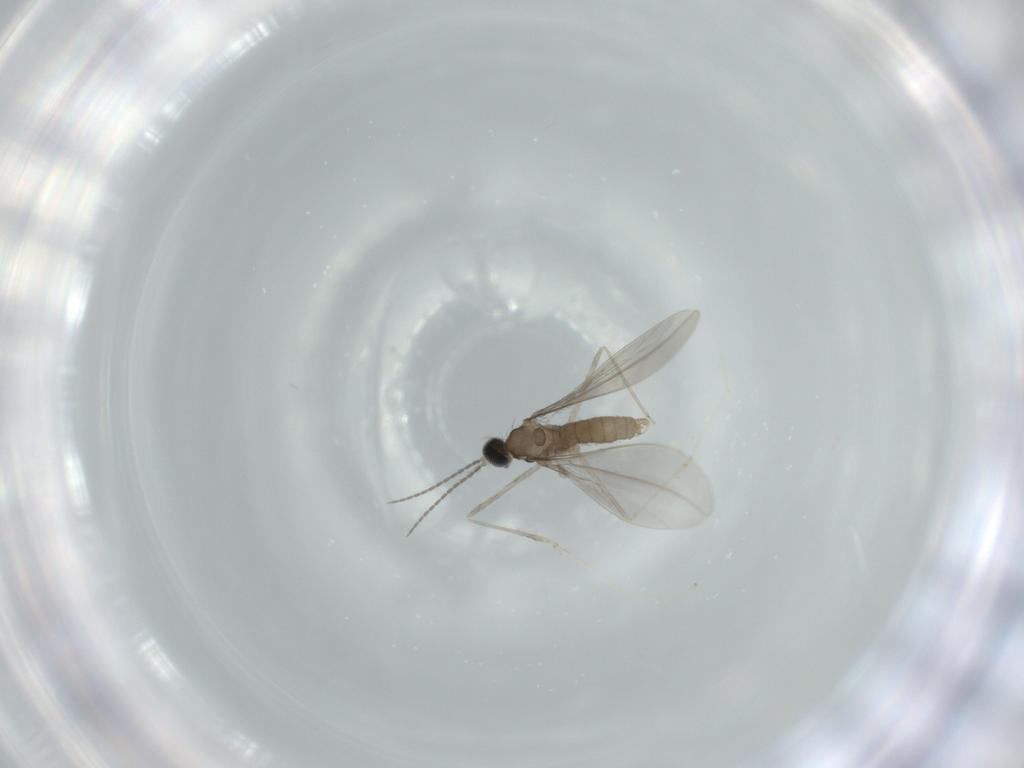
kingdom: Animalia
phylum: Arthropoda
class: Insecta
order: Diptera
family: Cecidomyiidae
